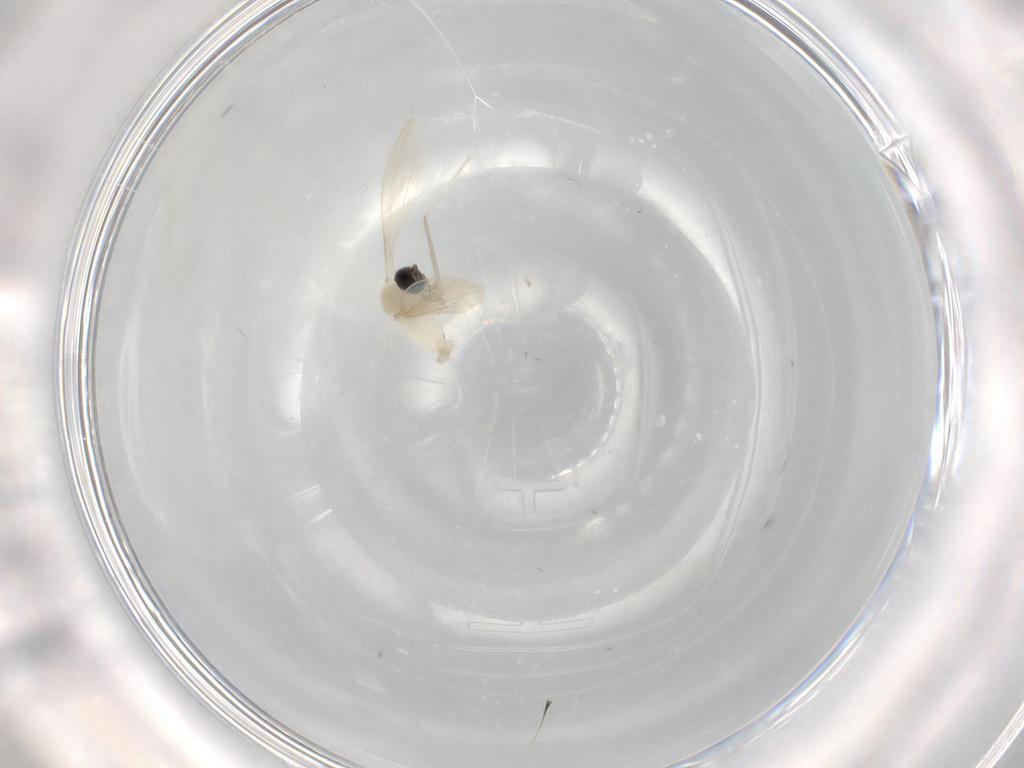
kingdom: Animalia
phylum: Arthropoda
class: Insecta
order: Diptera
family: Cecidomyiidae
